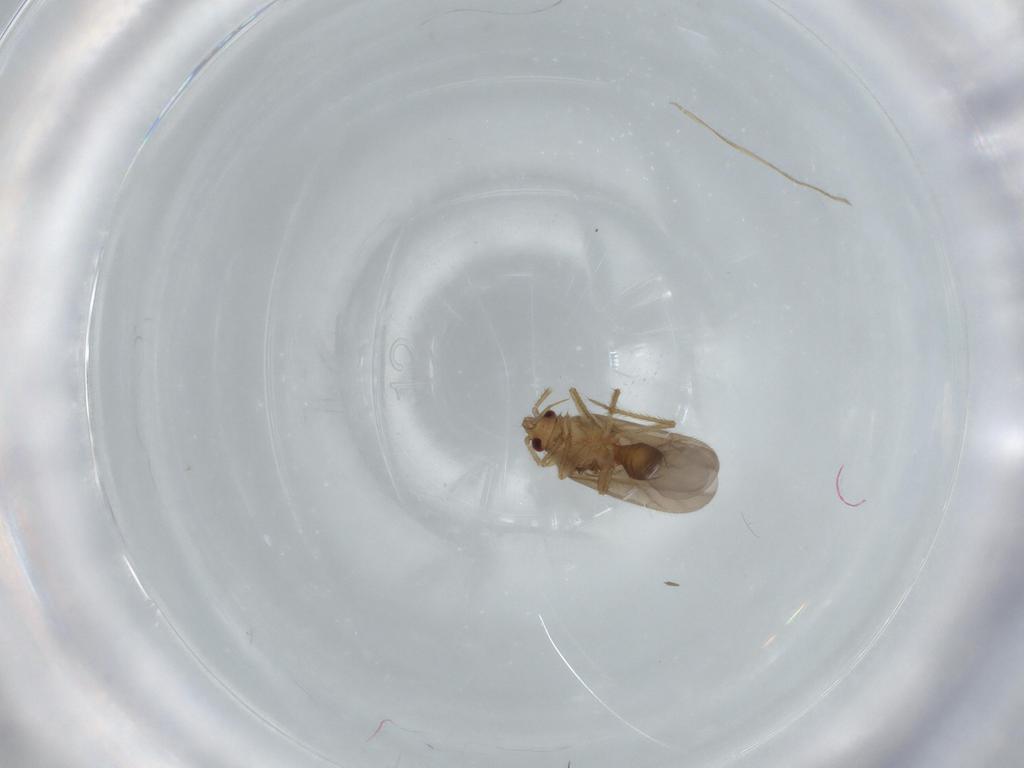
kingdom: Animalia
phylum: Arthropoda
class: Insecta
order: Hemiptera
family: Ceratocombidae
